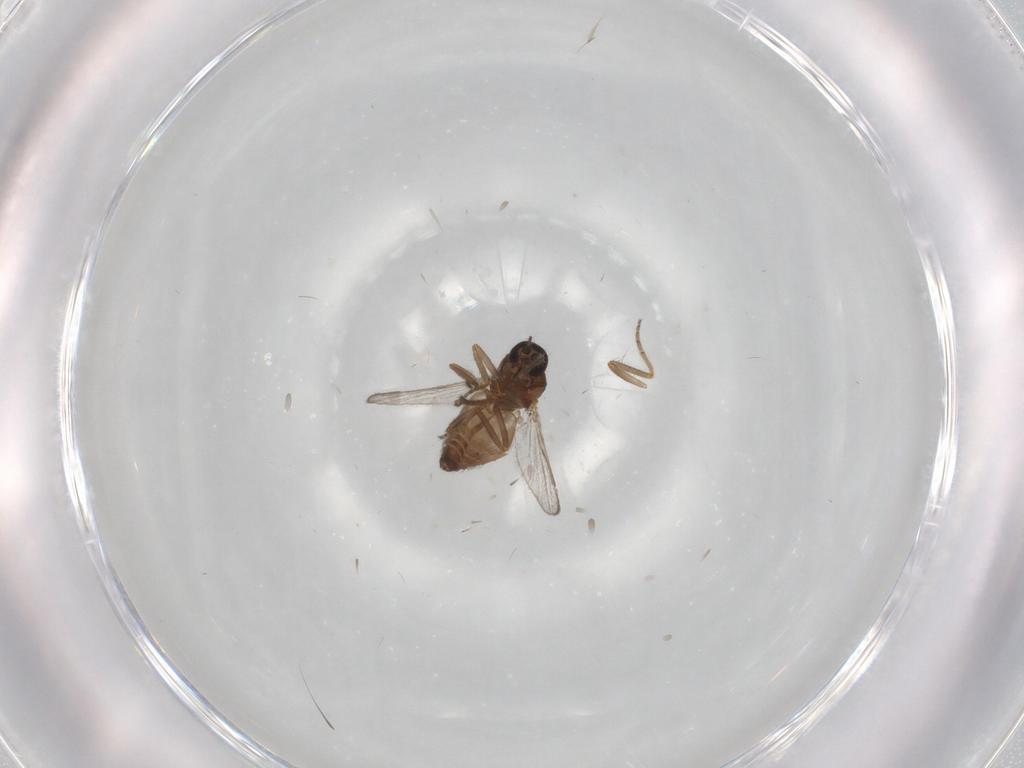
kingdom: Animalia
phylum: Arthropoda
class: Insecta
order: Diptera
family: Ceratopogonidae
